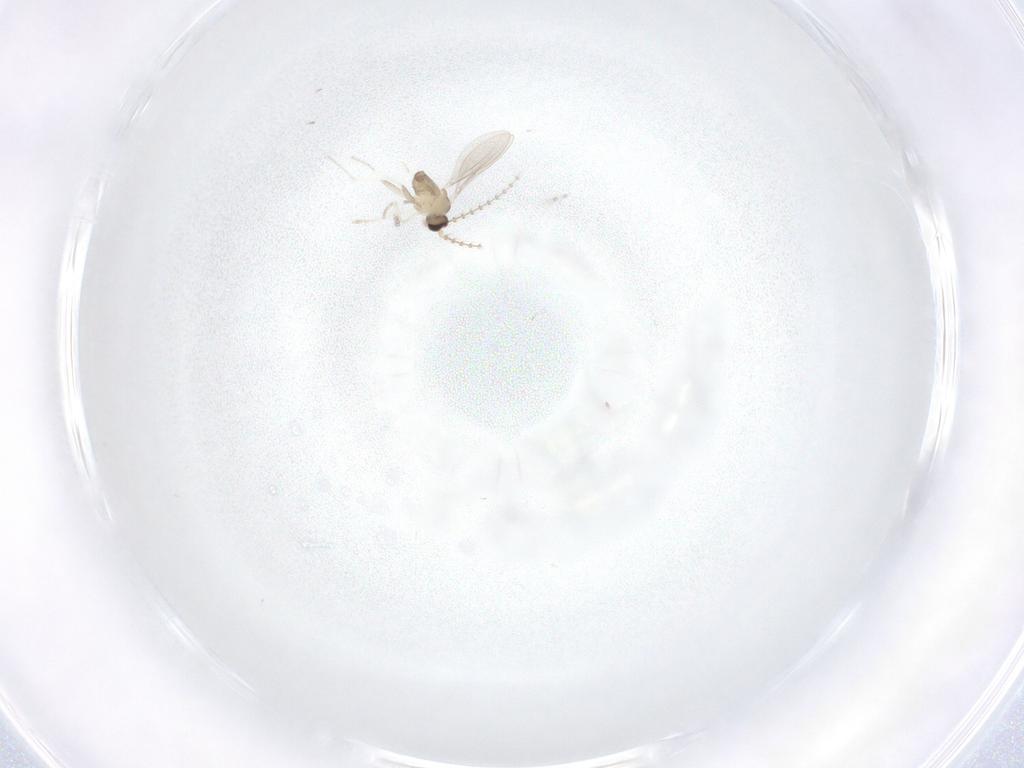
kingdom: Animalia
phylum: Arthropoda
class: Insecta
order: Diptera
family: Cecidomyiidae
